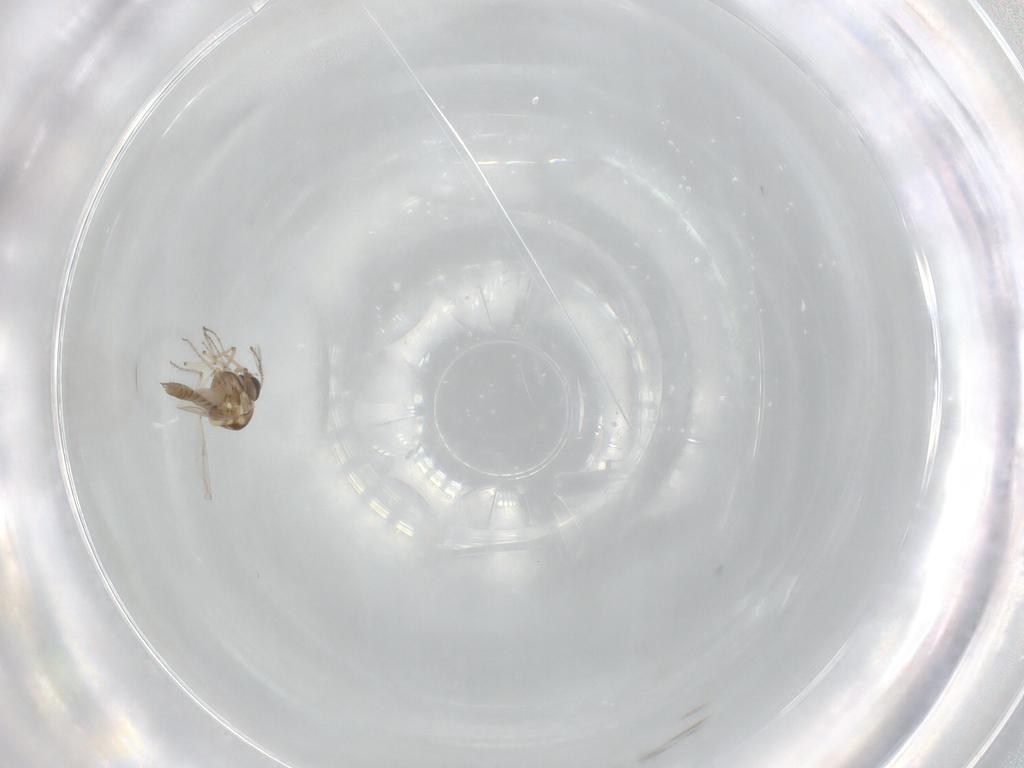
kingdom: Animalia
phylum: Arthropoda
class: Insecta
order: Diptera
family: Ceratopogonidae
